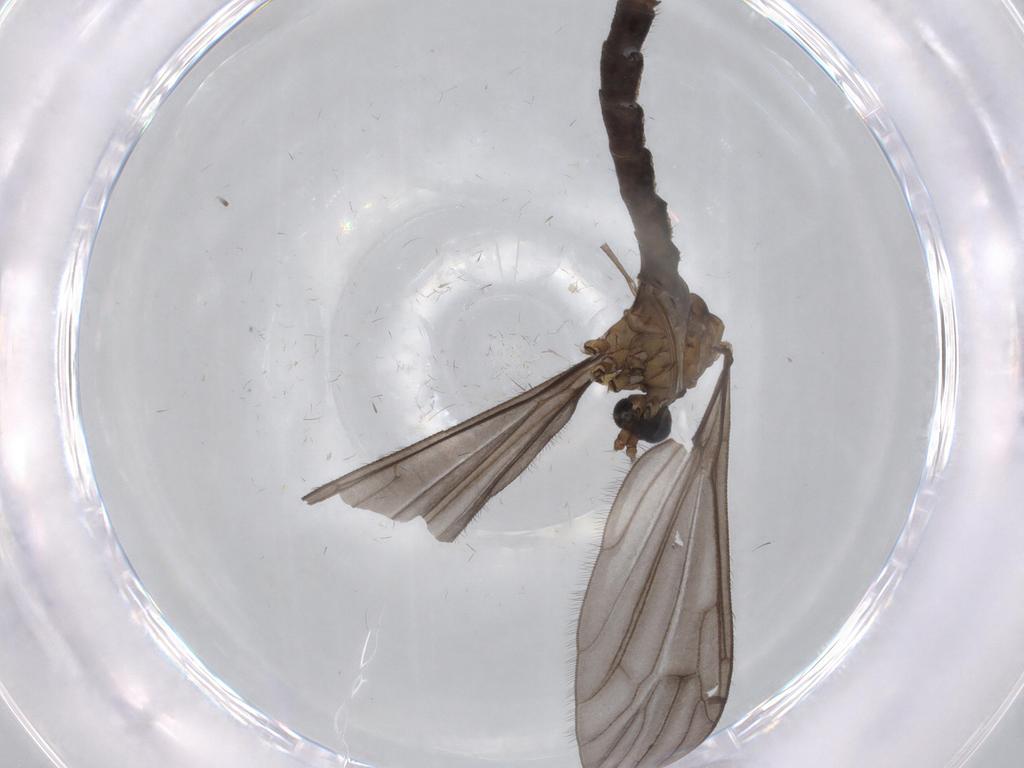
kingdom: Animalia
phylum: Arthropoda
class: Insecta
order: Diptera
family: Limoniidae
